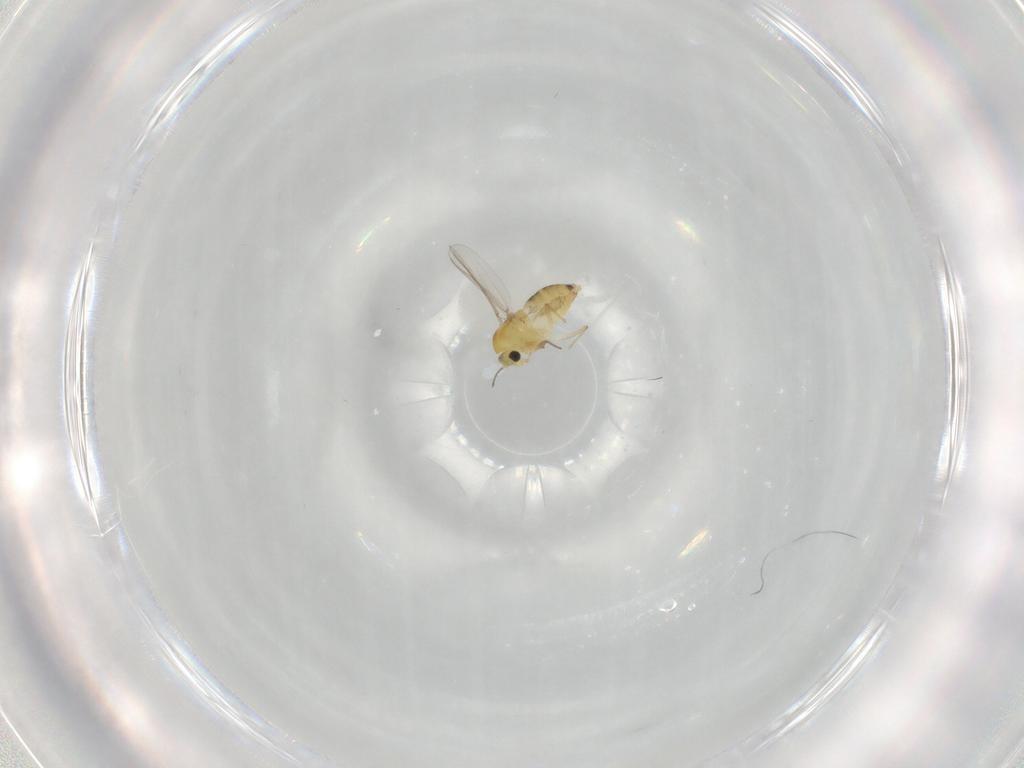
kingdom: Animalia
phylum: Arthropoda
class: Insecta
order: Diptera
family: Chironomidae
